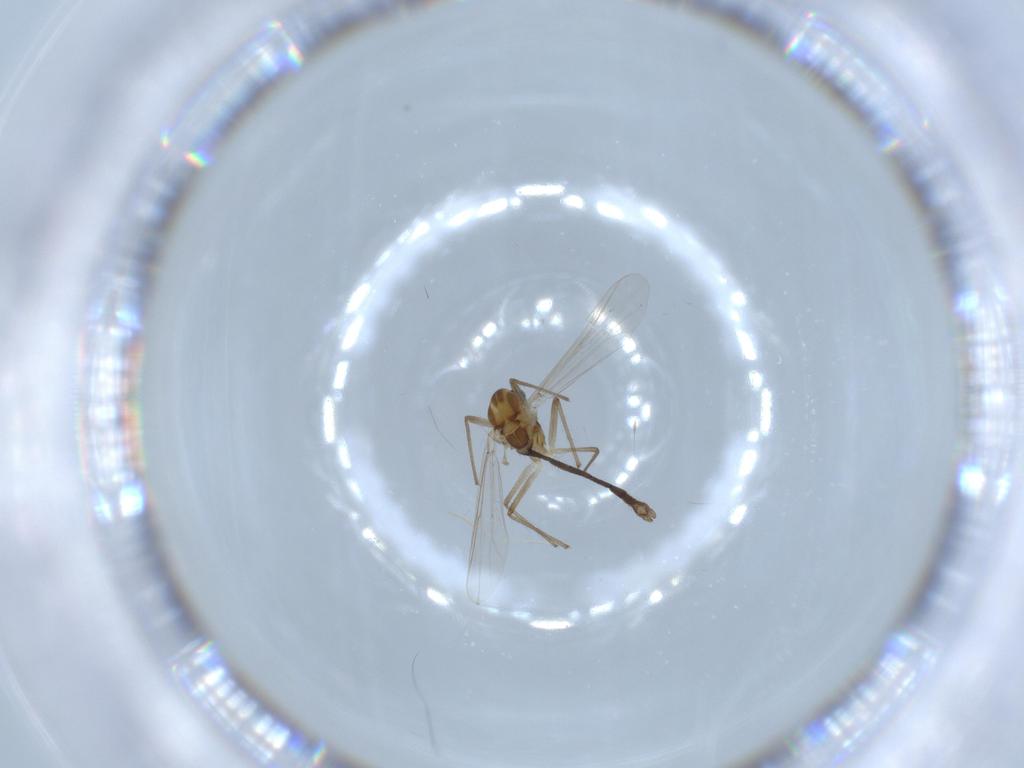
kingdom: Animalia
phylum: Arthropoda
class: Insecta
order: Diptera
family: Chironomidae
